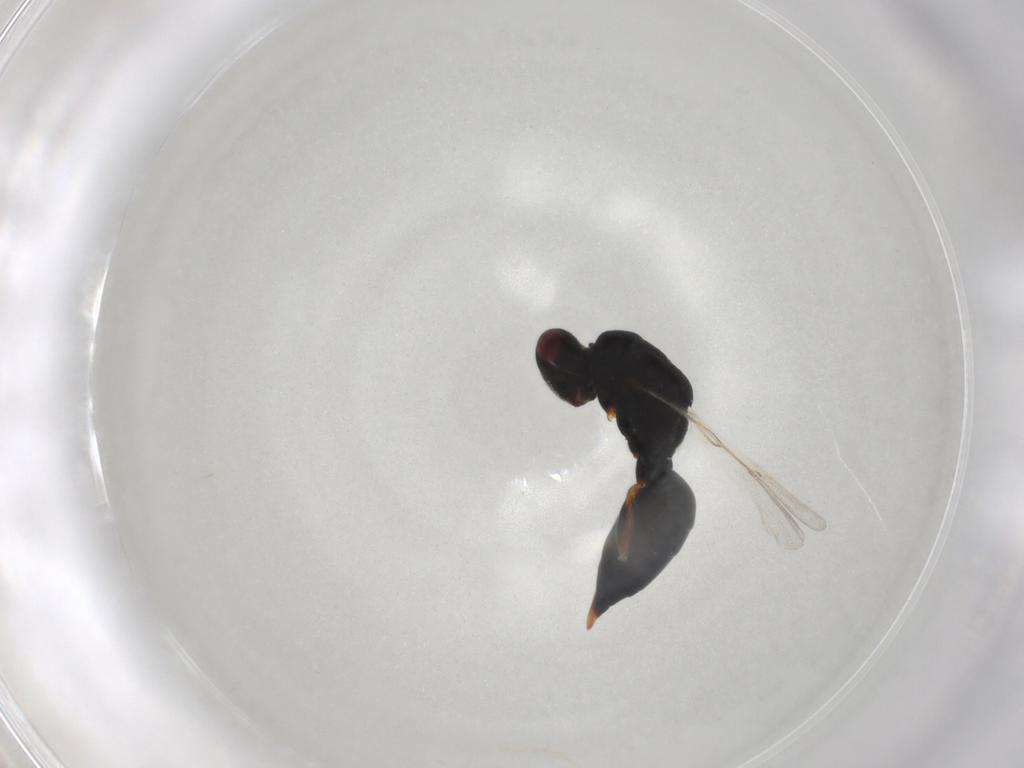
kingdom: Animalia
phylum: Arthropoda
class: Insecta
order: Hymenoptera
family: Eurytomidae
